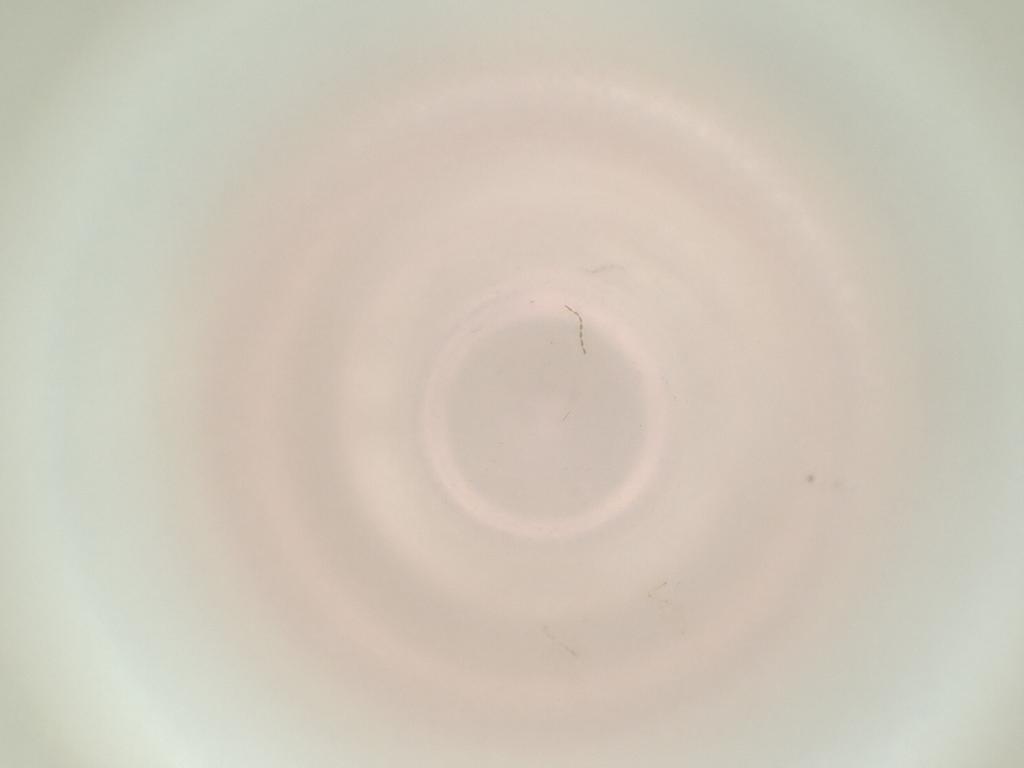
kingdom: Animalia
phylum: Arthropoda
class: Insecta
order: Diptera
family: Cecidomyiidae
